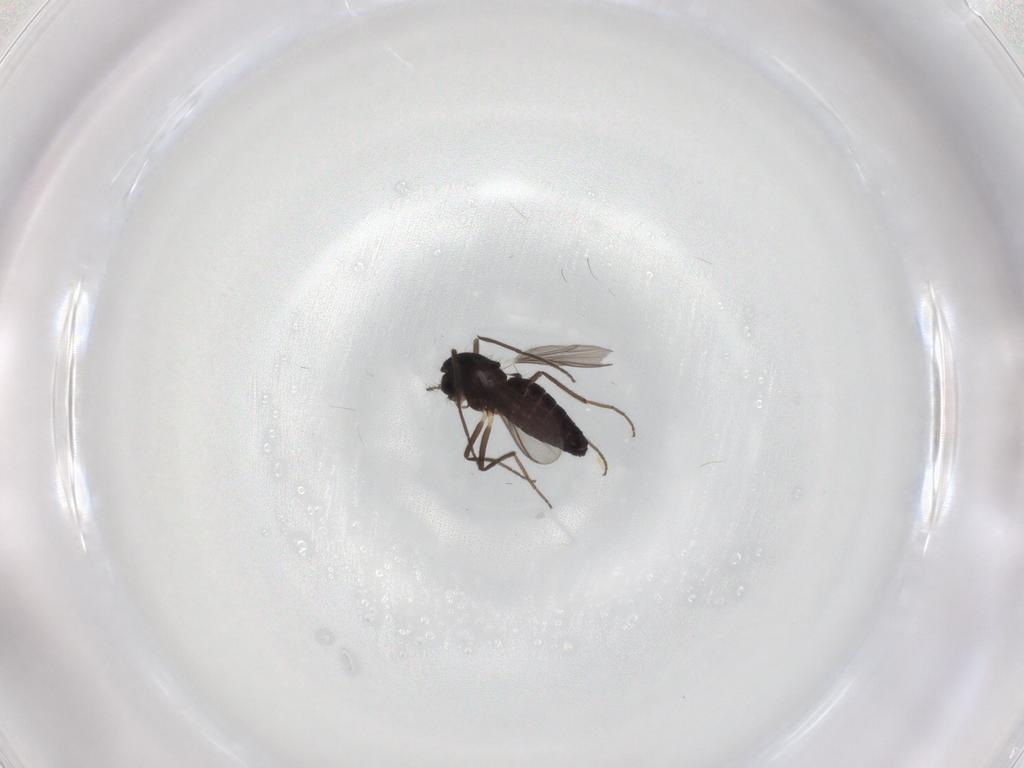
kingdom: Animalia
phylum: Arthropoda
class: Insecta
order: Diptera
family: Chironomidae
